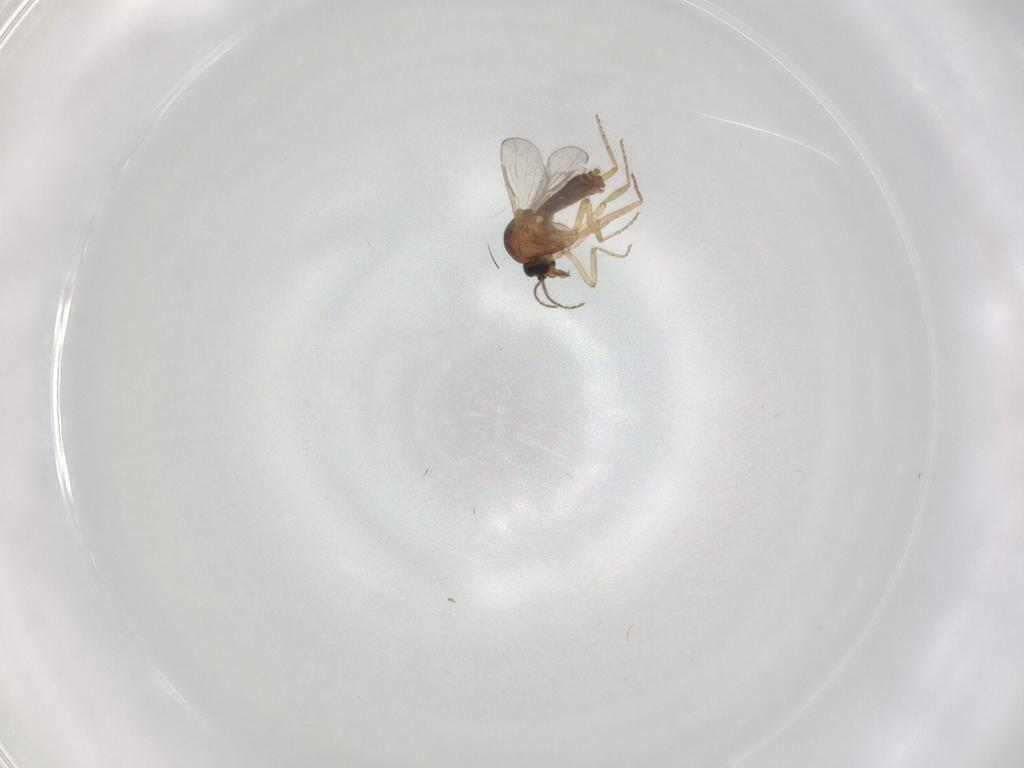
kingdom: Animalia
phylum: Arthropoda
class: Insecta
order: Diptera
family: Ceratopogonidae
